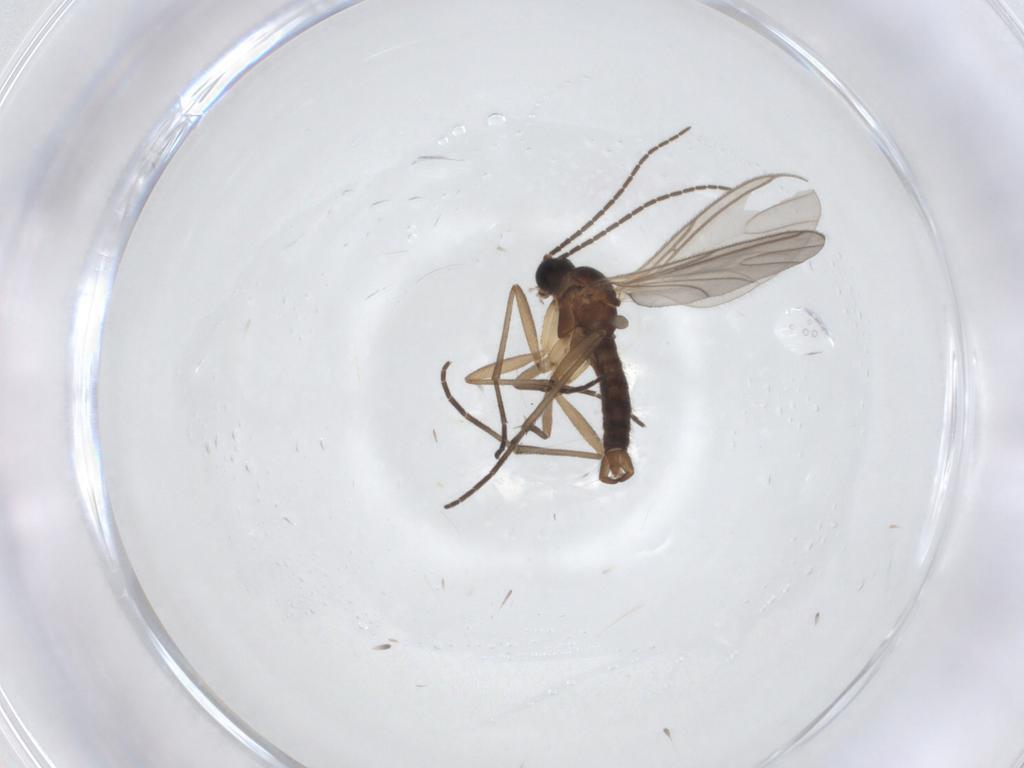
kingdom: Animalia
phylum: Arthropoda
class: Insecta
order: Diptera
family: Sciaridae
